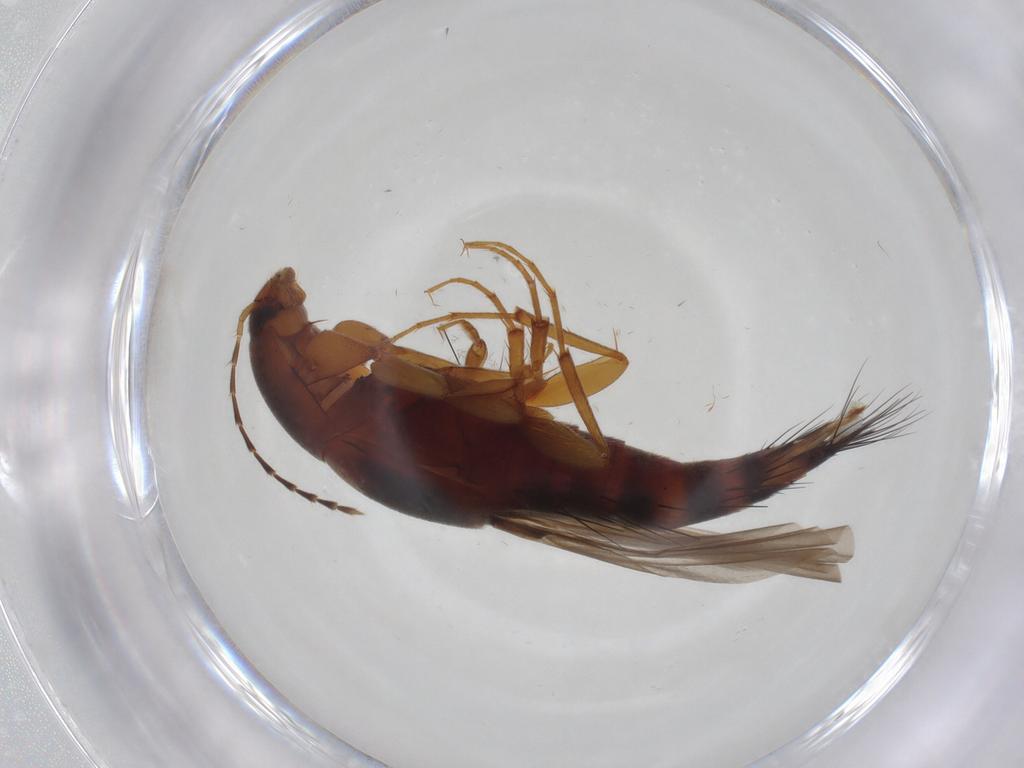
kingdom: Animalia
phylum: Arthropoda
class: Insecta
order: Coleoptera
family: Staphylinidae
